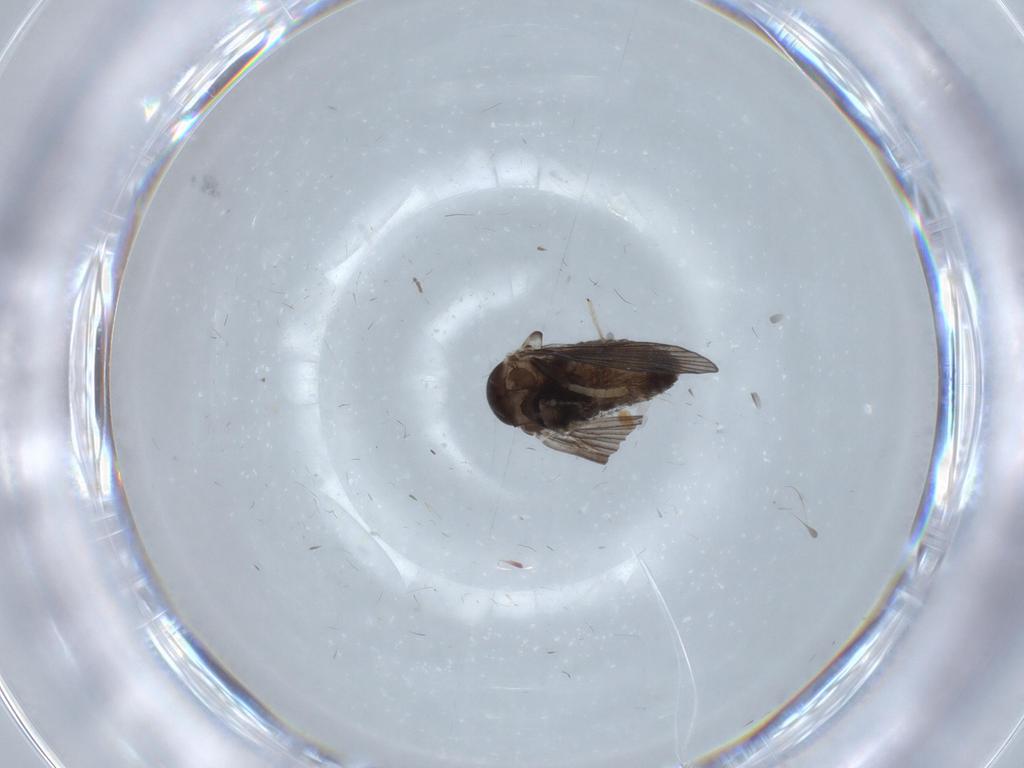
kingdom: Animalia
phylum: Arthropoda
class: Insecta
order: Diptera
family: Psychodidae
